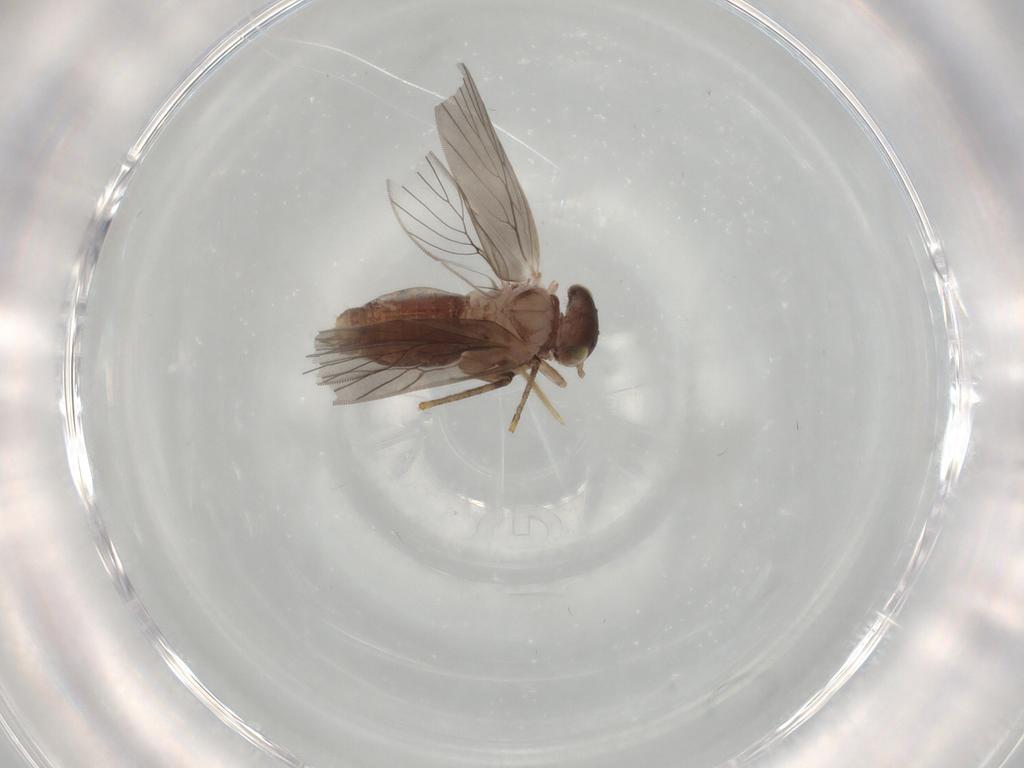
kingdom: Animalia
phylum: Arthropoda
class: Insecta
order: Psocodea
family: Lepidopsocidae
